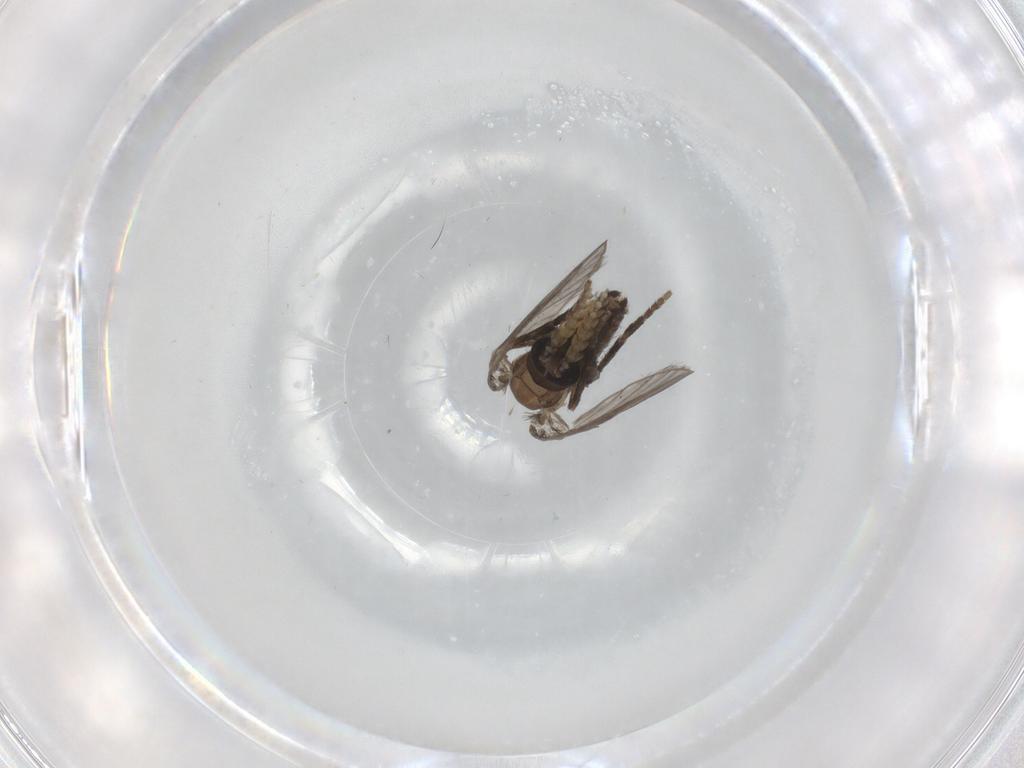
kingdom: Animalia
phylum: Arthropoda
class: Insecta
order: Diptera
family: Psychodidae
